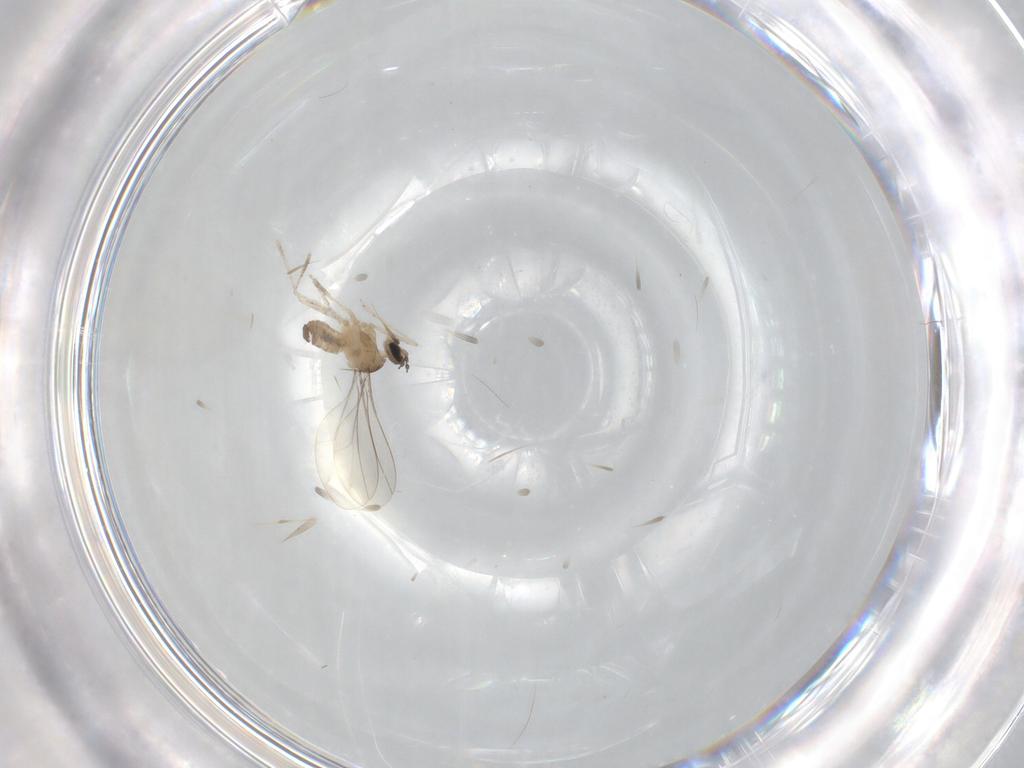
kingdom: Animalia
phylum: Arthropoda
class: Insecta
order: Diptera
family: Cecidomyiidae
